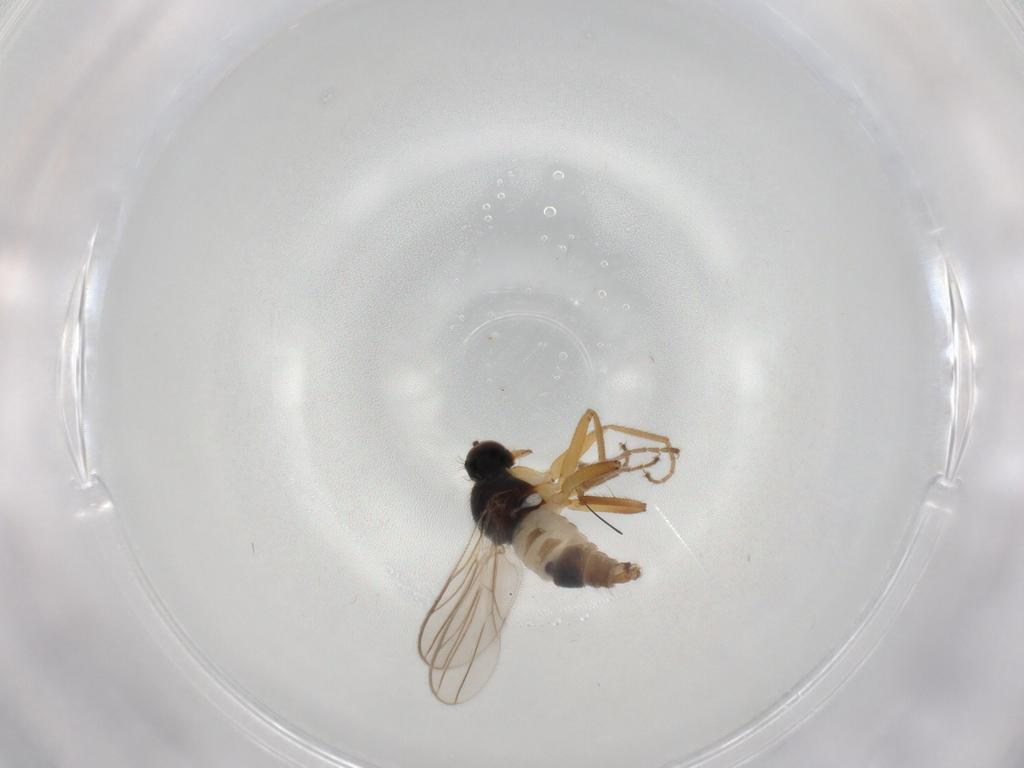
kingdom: Animalia
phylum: Arthropoda
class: Insecta
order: Diptera
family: Hybotidae
